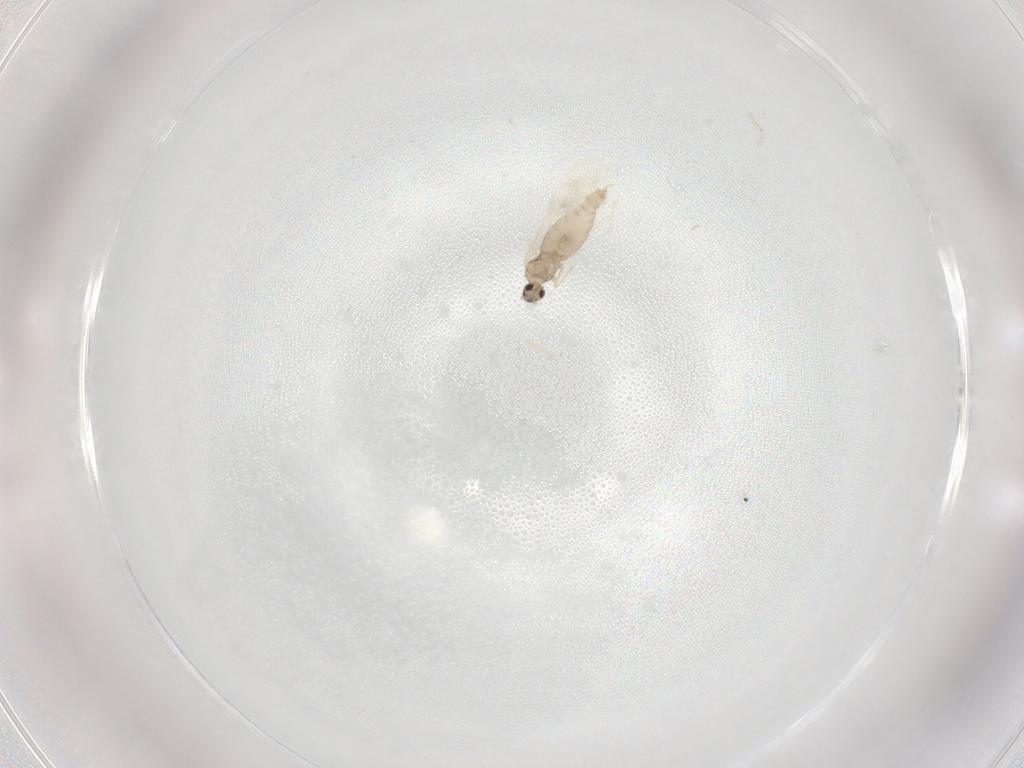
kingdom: Animalia
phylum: Arthropoda
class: Insecta
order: Diptera
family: Cecidomyiidae
